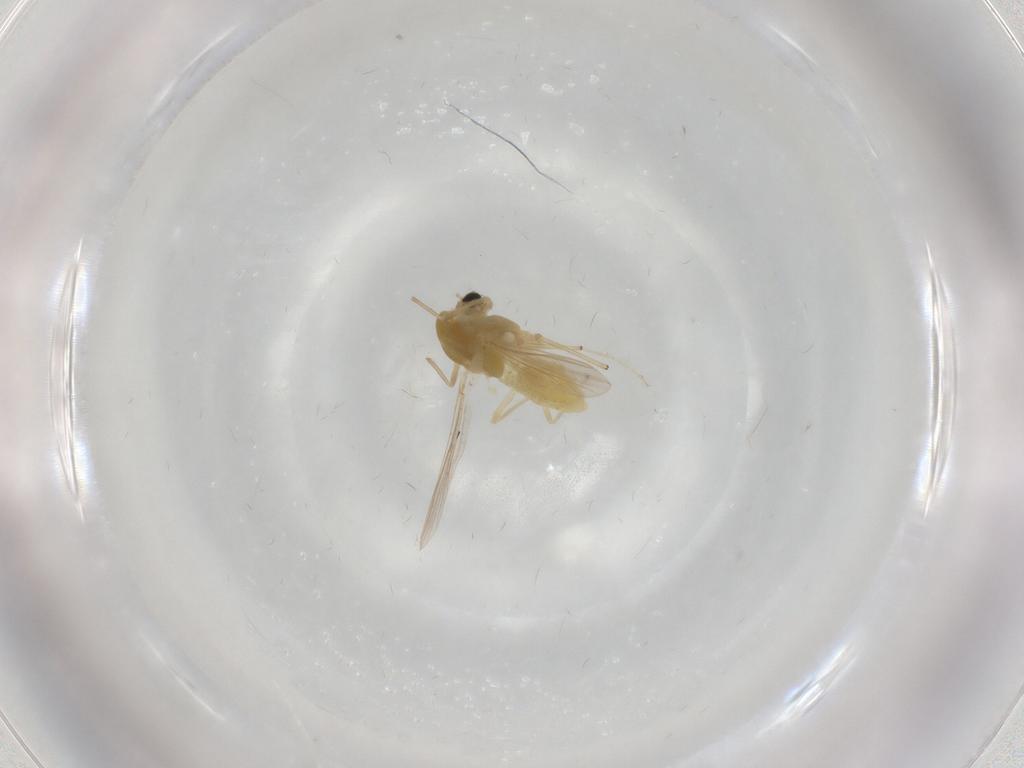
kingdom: Animalia
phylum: Arthropoda
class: Insecta
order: Diptera
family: Chironomidae
